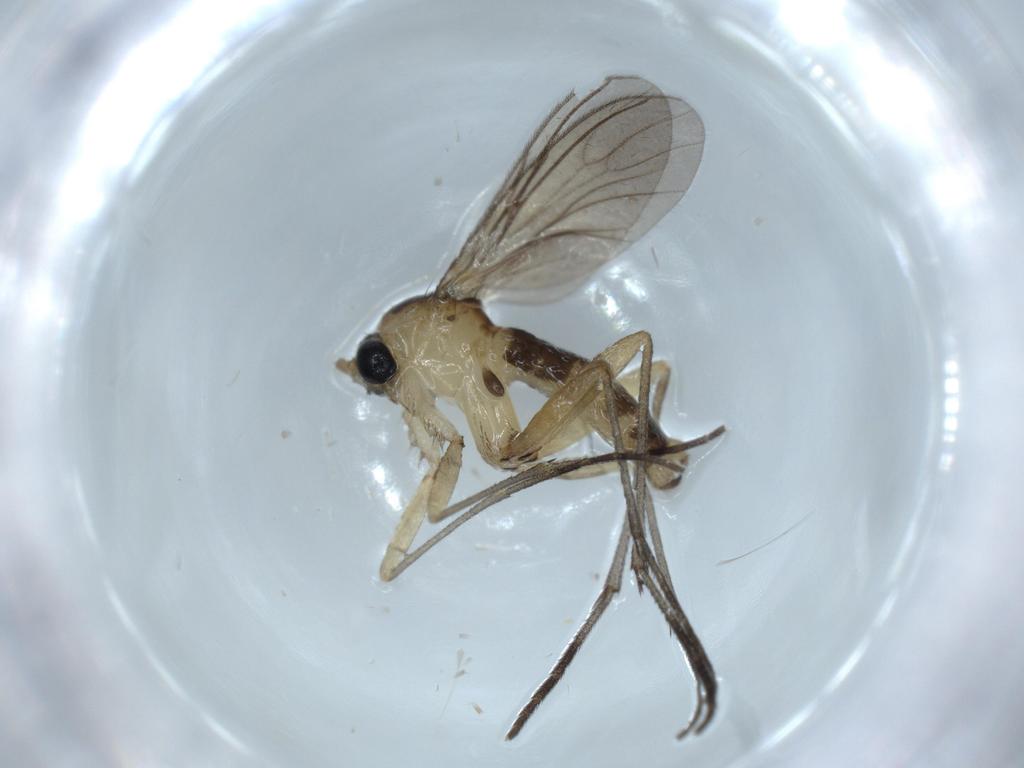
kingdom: Animalia
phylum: Arthropoda
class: Insecta
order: Diptera
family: Sciaridae
